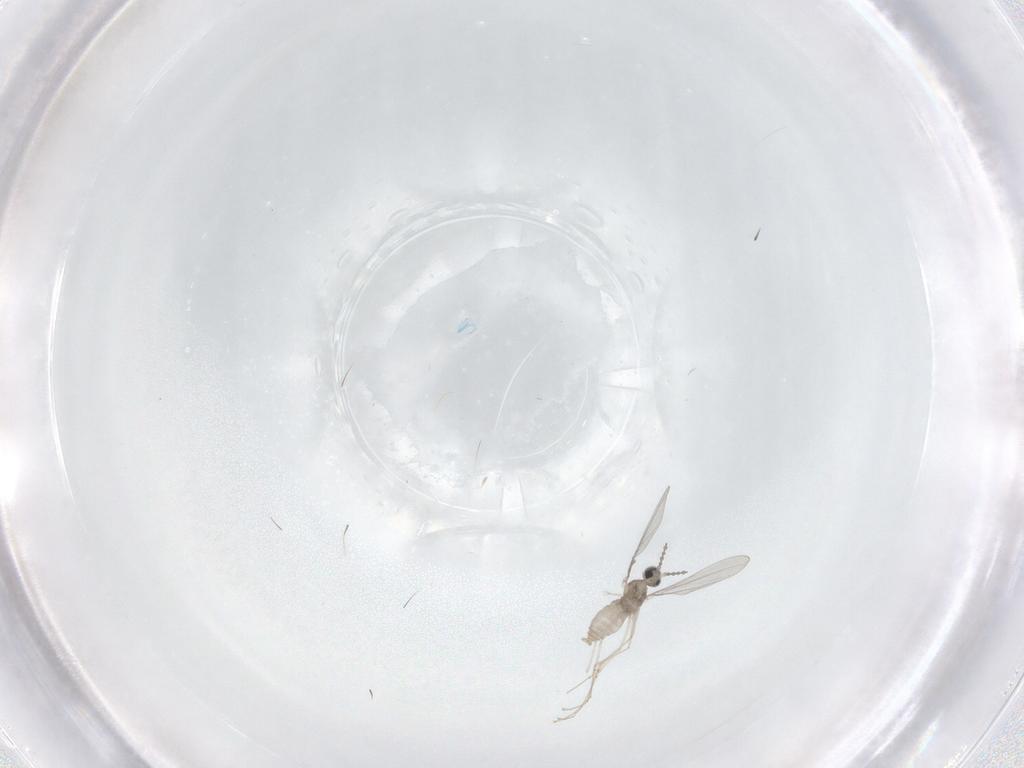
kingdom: Animalia
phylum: Arthropoda
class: Insecta
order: Diptera
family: Ceratopogonidae
